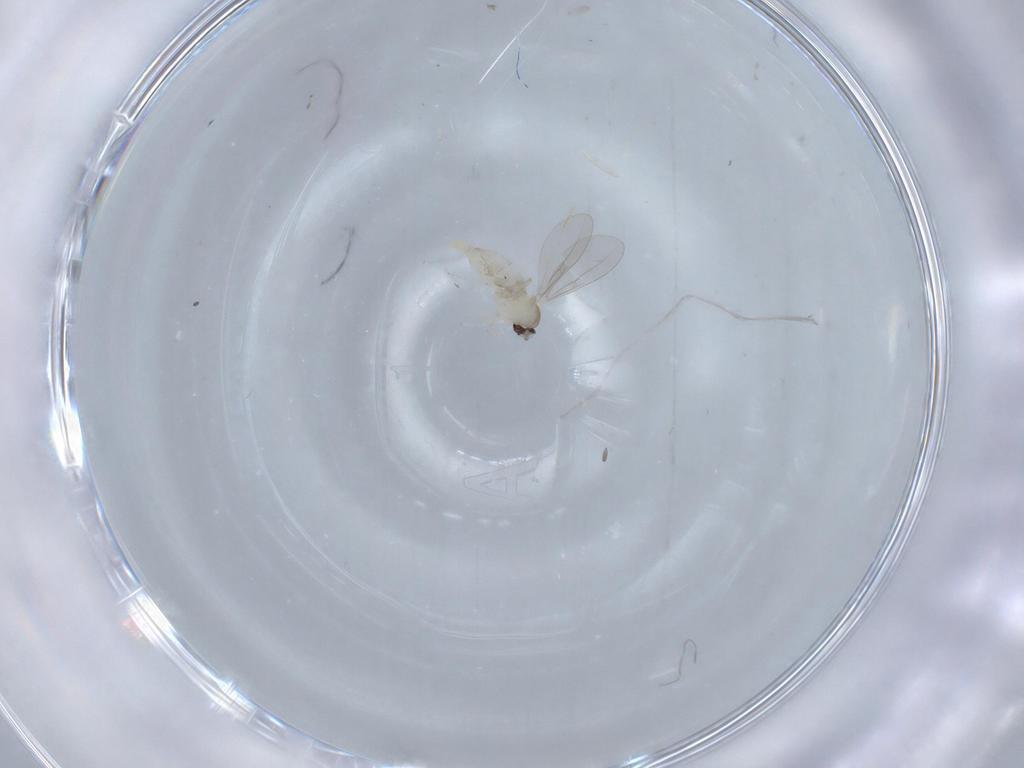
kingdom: Animalia
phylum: Arthropoda
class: Insecta
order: Diptera
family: Cecidomyiidae
